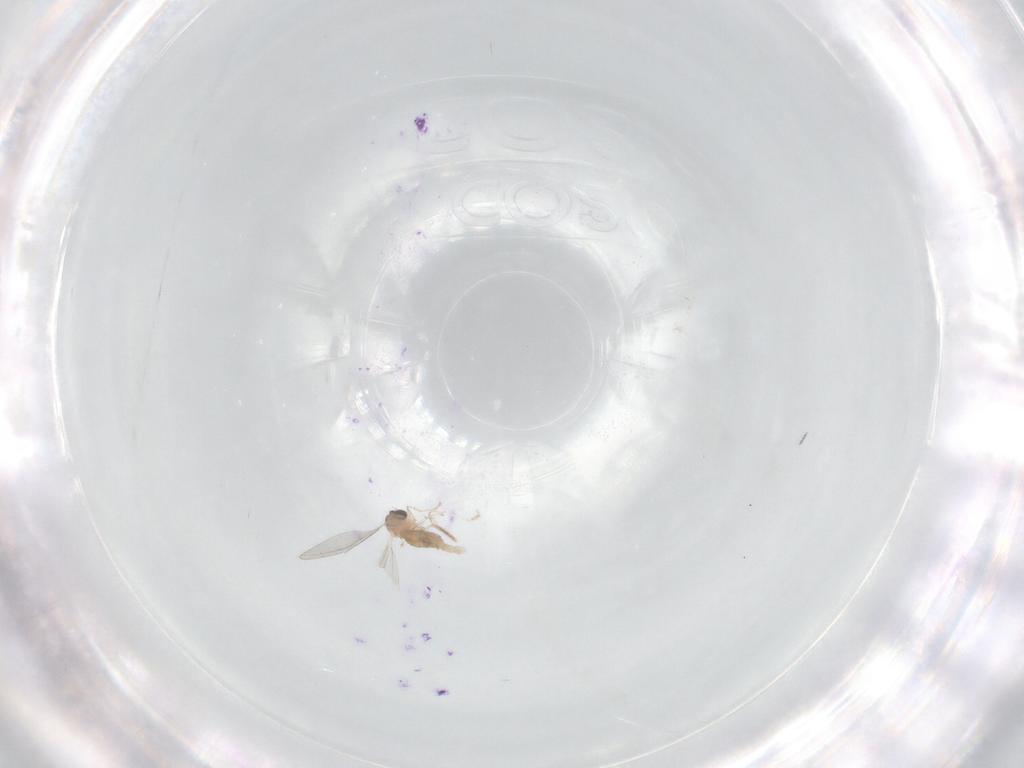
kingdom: Animalia
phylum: Arthropoda
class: Insecta
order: Diptera
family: Cecidomyiidae
